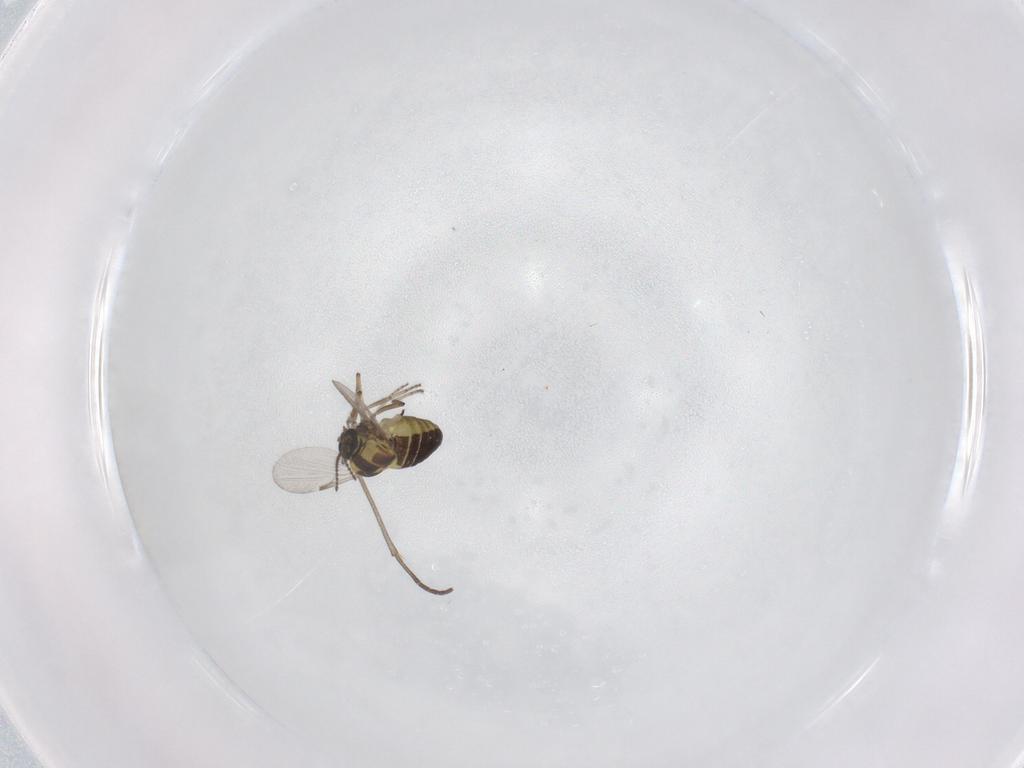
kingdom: Animalia
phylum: Arthropoda
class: Insecta
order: Diptera
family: Ceratopogonidae
